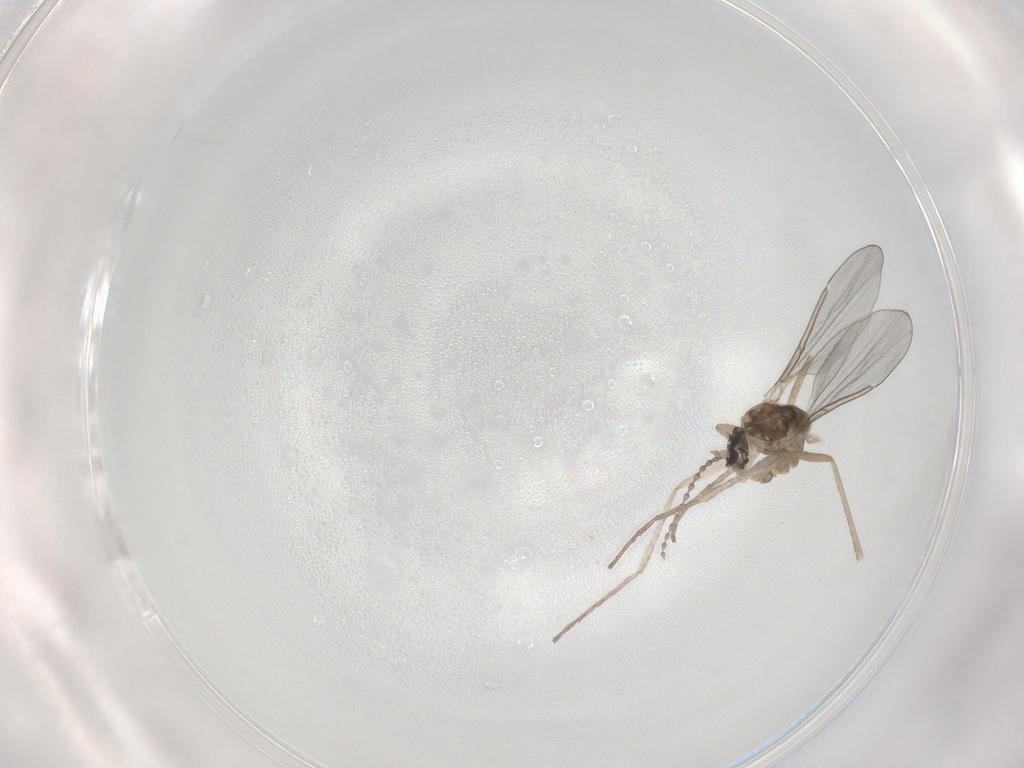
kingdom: Animalia
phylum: Arthropoda
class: Insecta
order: Diptera
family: Cecidomyiidae
